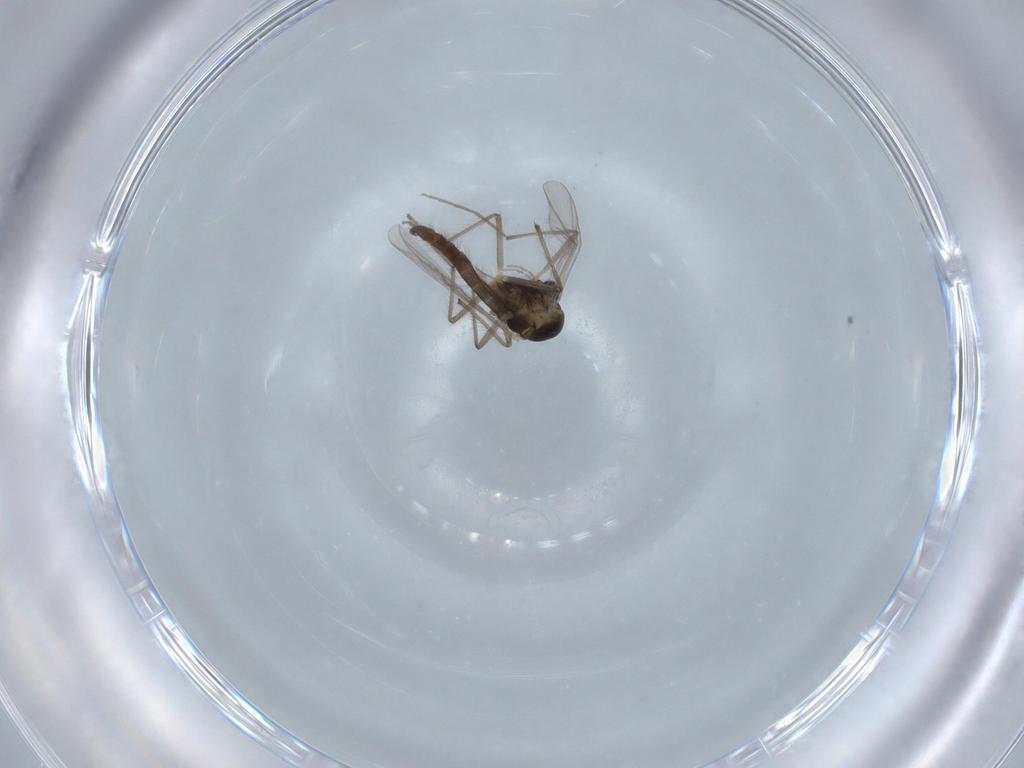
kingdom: Animalia
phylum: Arthropoda
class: Insecta
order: Diptera
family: Chironomidae
